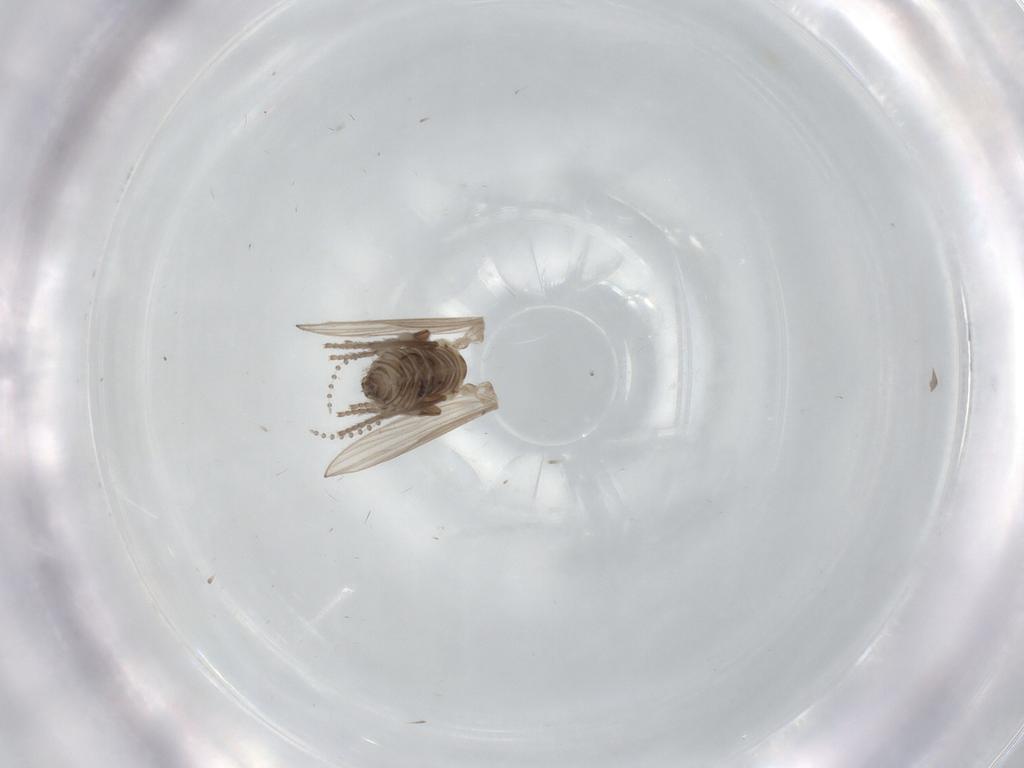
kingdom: Animalia
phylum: Arthropoda
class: Insecta
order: Diptera
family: Psychodidae
